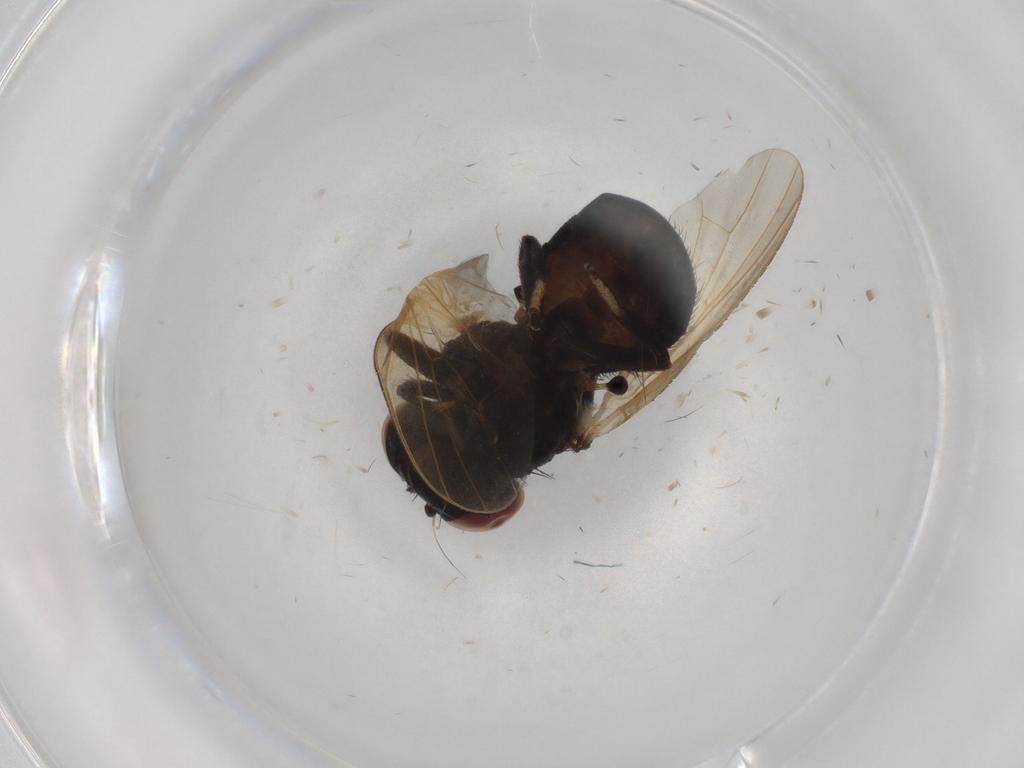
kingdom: Animalia
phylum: Arthropoda
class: Insecta
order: Diptera
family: Lonchaeidae
